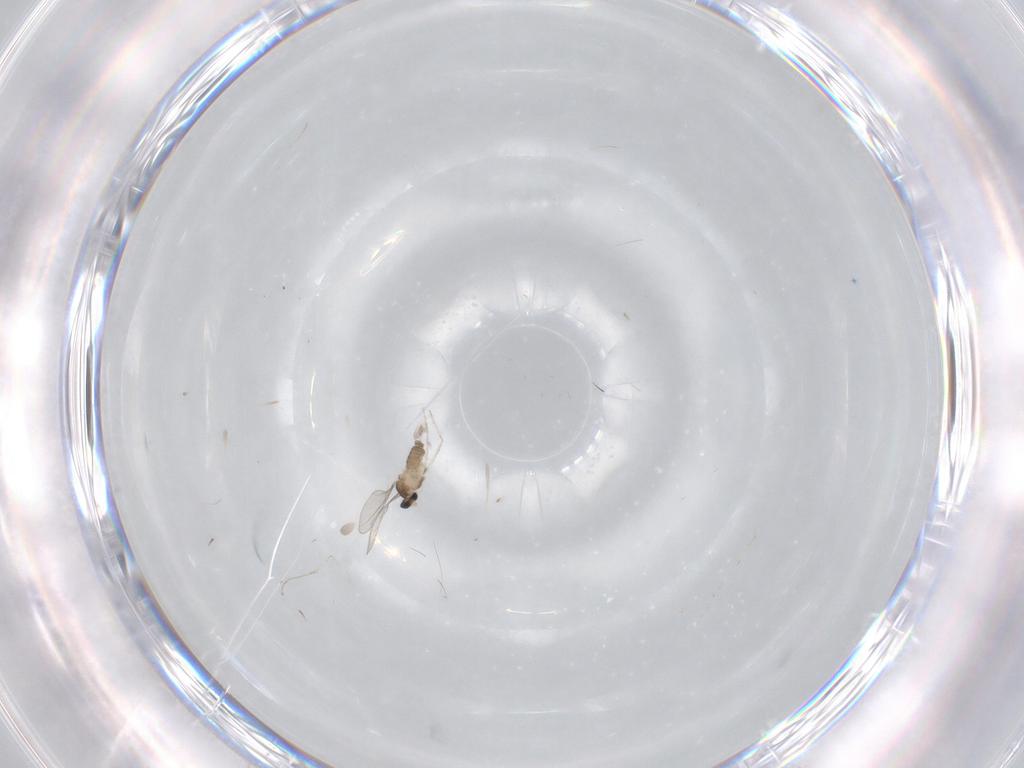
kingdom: Animalia
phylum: Arthropoda
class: Insecta
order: Diptera
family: Cecidomyiidae
